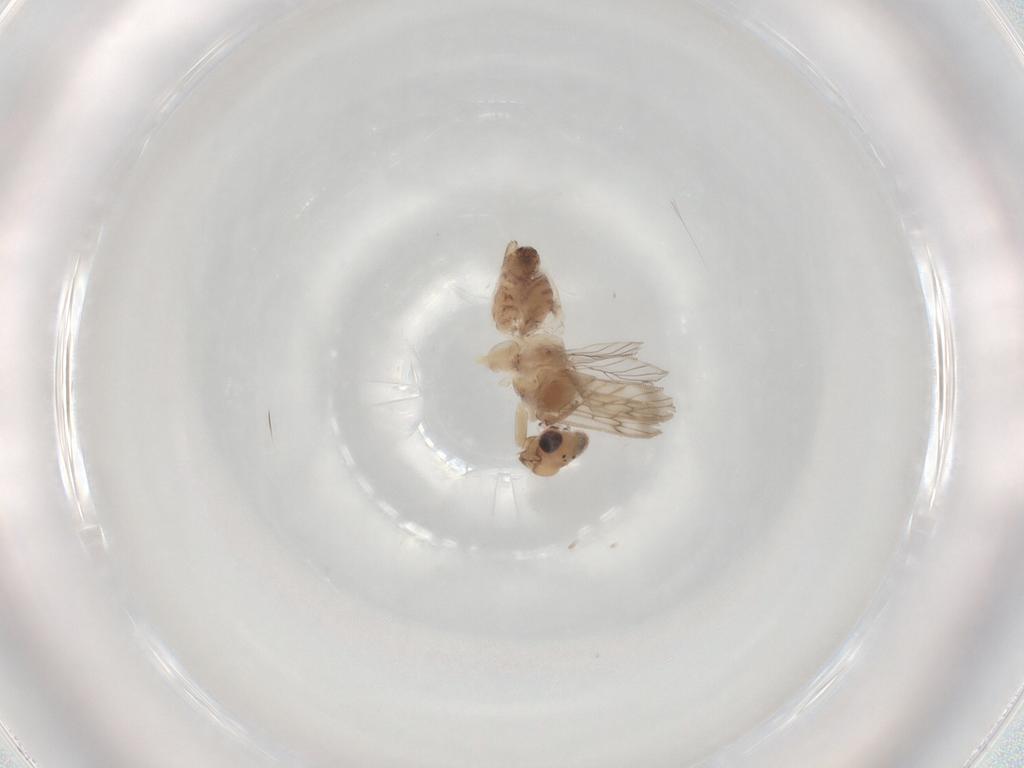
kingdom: Animalia
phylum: Arthropoda
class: Insecta
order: Psocodea
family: Lepidopsocidae
